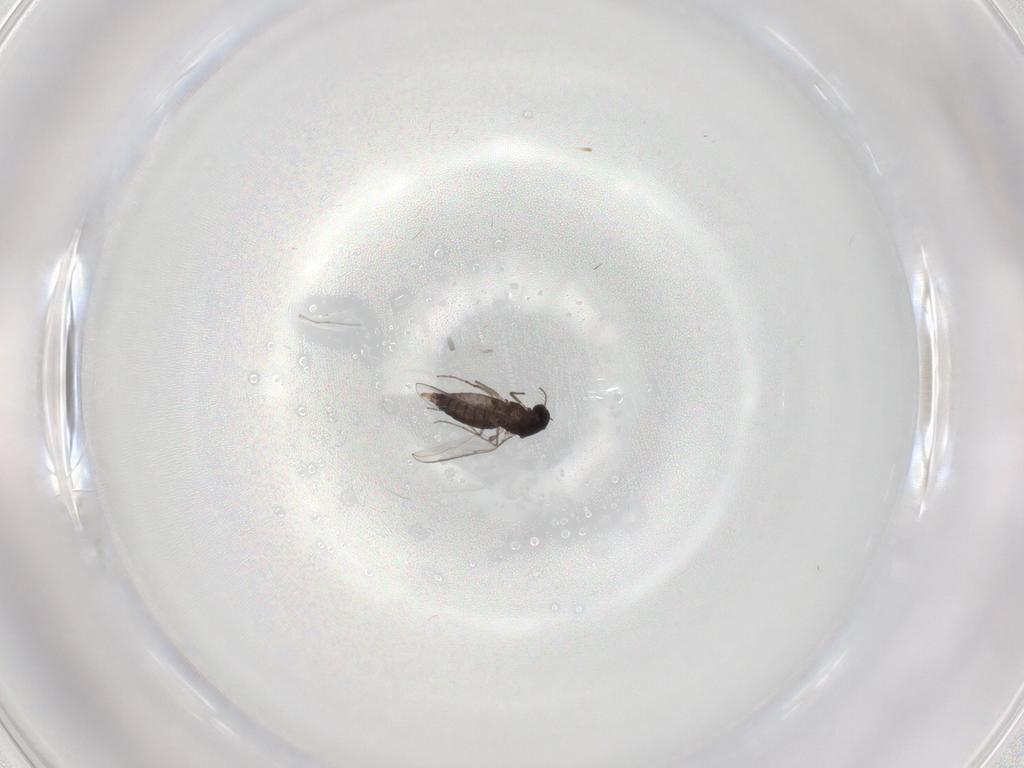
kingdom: Animalia
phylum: Arthropoda
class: Insecta
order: Diptera
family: Chironomidae
